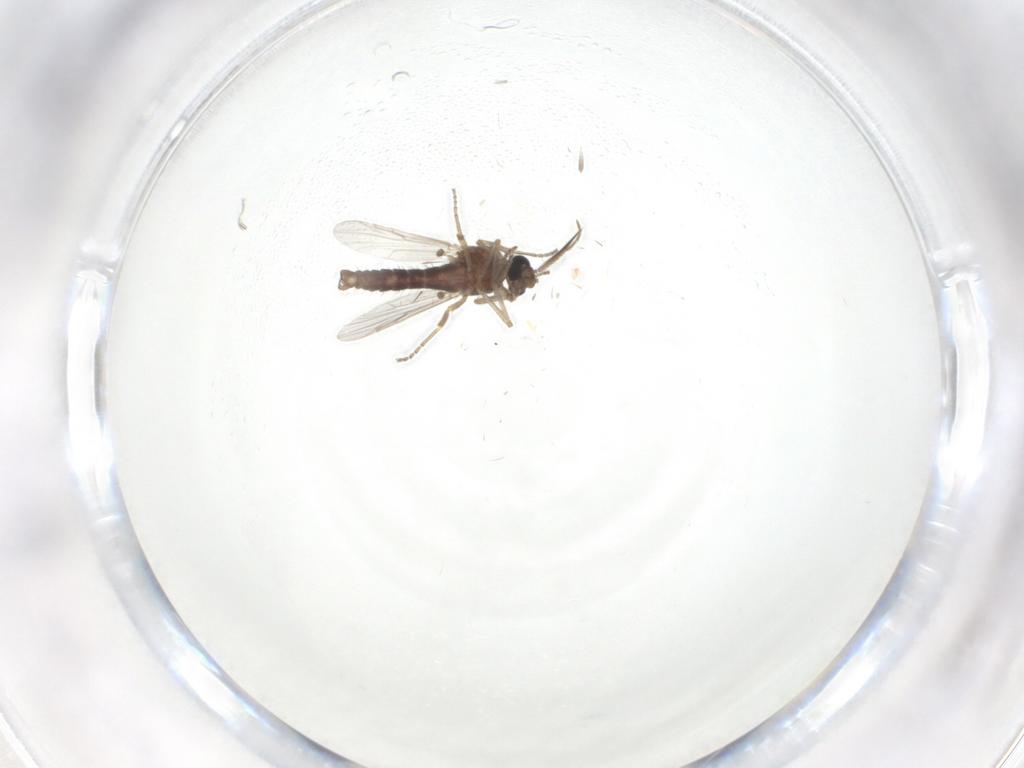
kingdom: Animalia
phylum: Arthropoda
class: Insecta
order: Diptera
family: Ceratopogonidae
